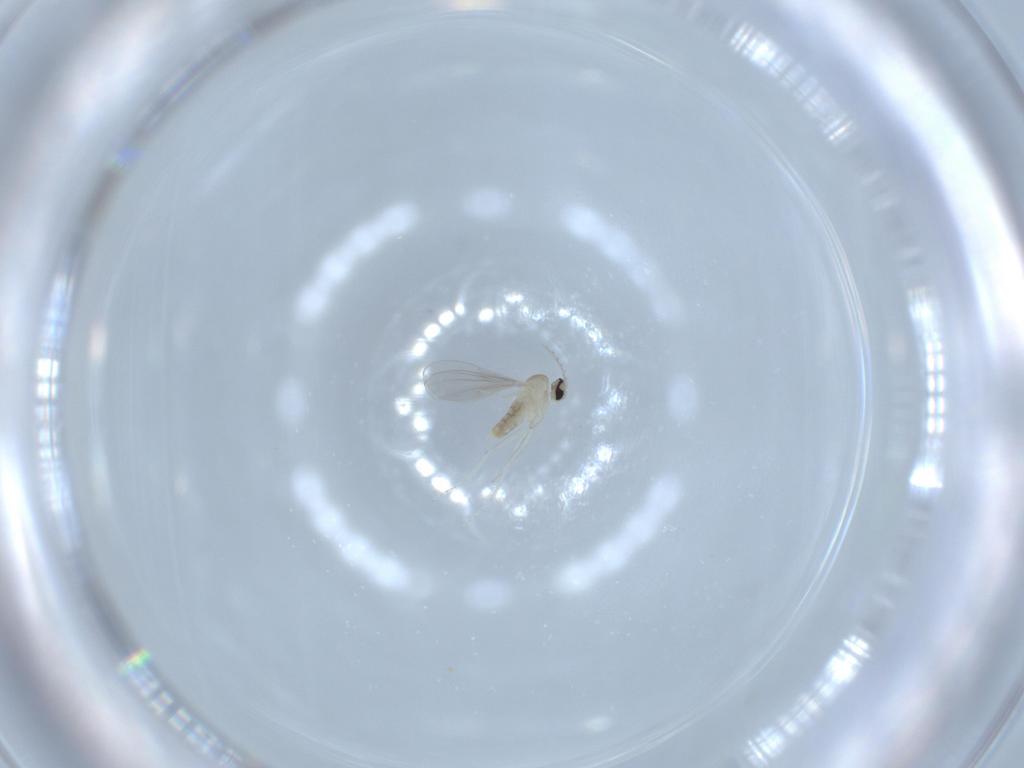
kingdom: Animalia
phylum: Arthropoda
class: Insecta
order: Diptera
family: Cecidomyiidae
